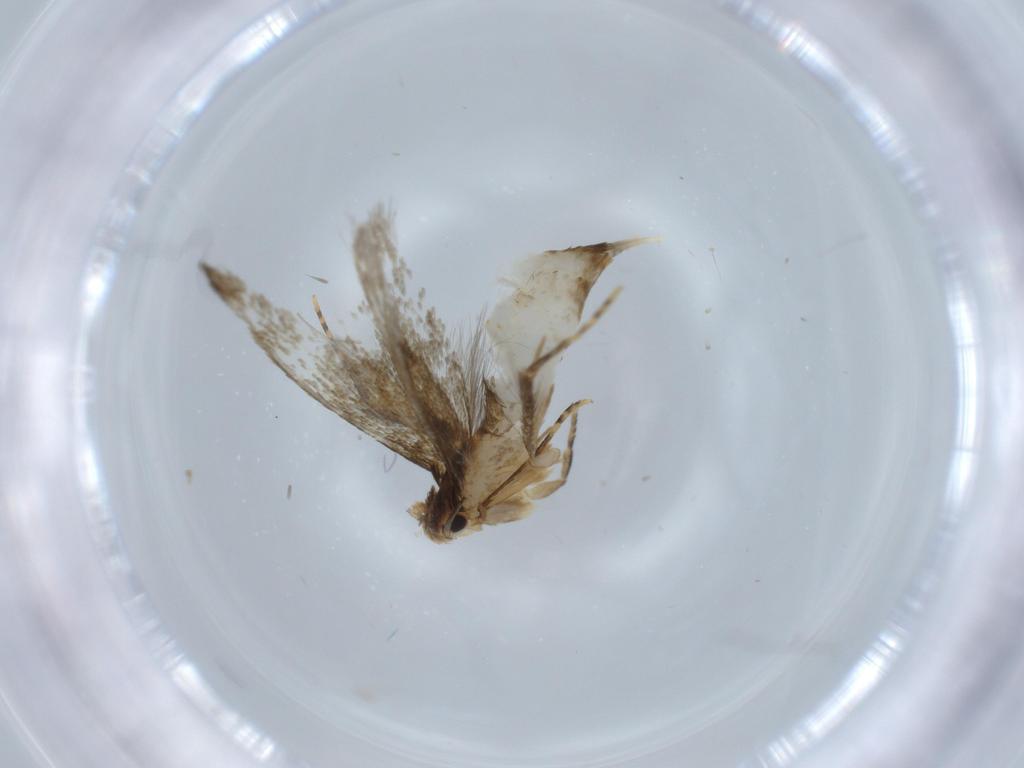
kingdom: Animalia
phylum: Arthropoda
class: Insecta
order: Lepidoptera
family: Tineidae
